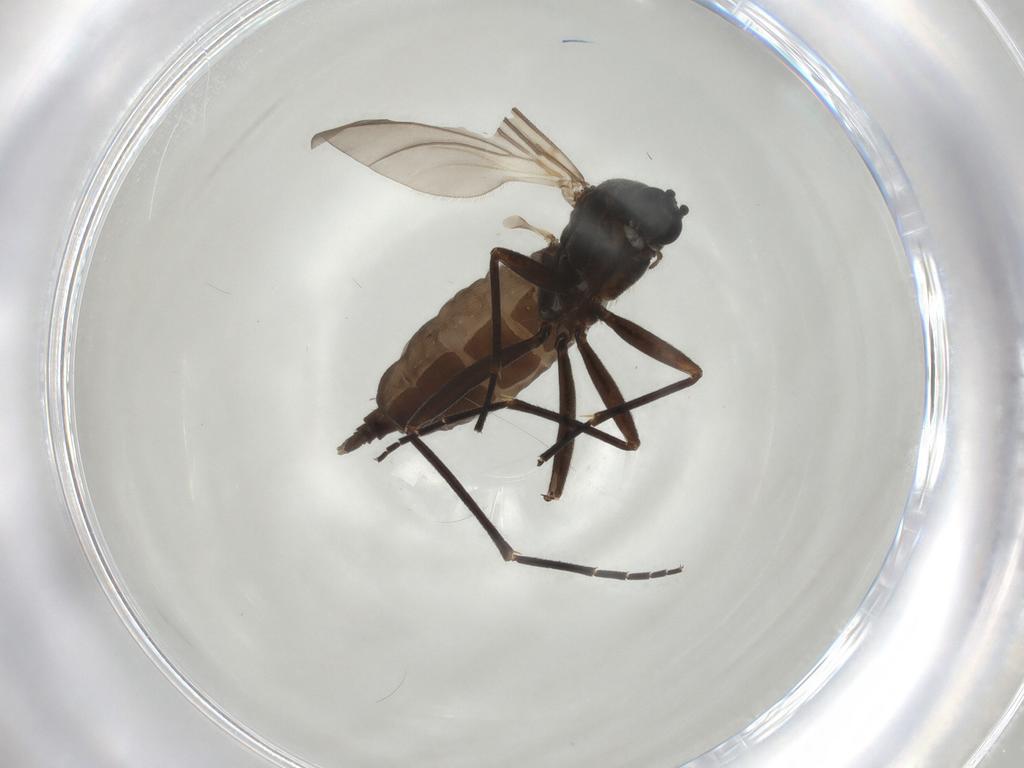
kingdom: Animalia
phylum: Arthropoda
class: Insecta
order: Diptera
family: Sciaridae
